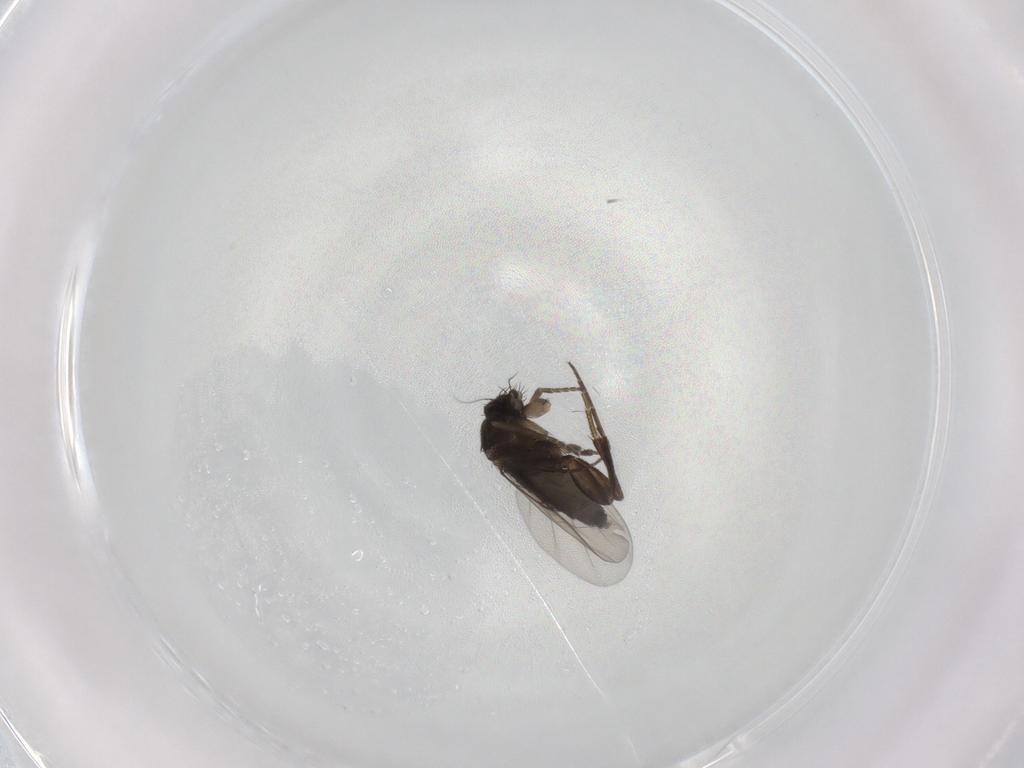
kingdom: Animalia
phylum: Arthropoda
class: Insecta
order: Diptera
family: Phoridae
